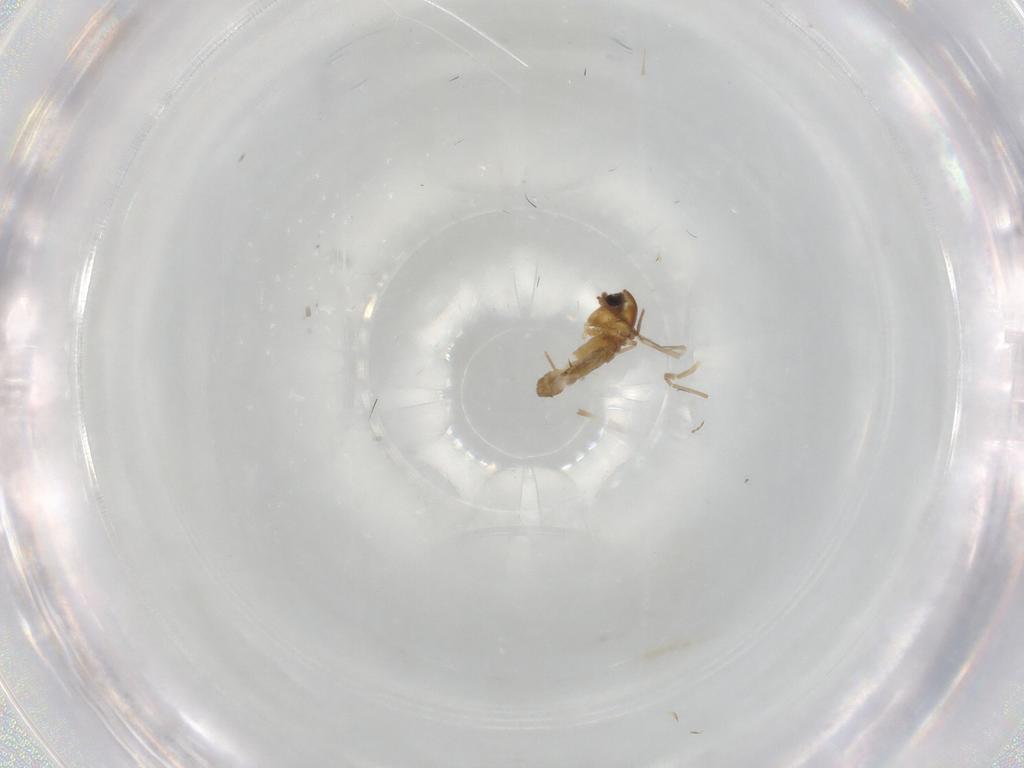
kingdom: Animalia
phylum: Arthropoda
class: Insecta
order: Diptera
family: Chironomidae
